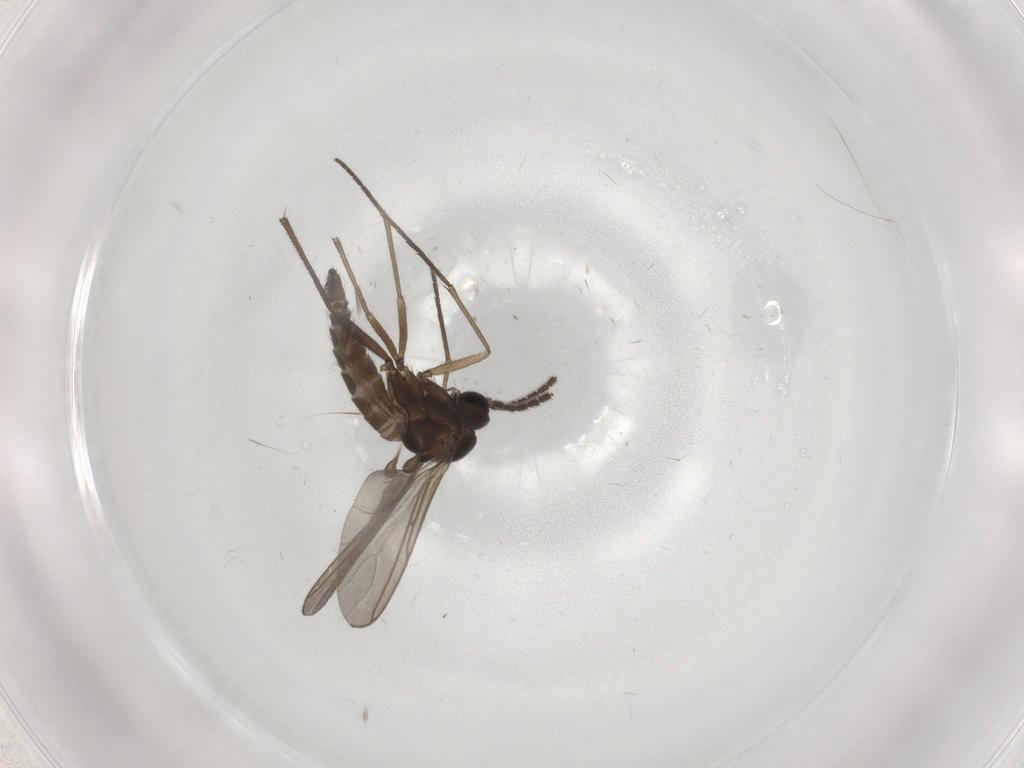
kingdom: Animalia
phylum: Arthropoda
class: Insecta
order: Diptera
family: Sciaridae
